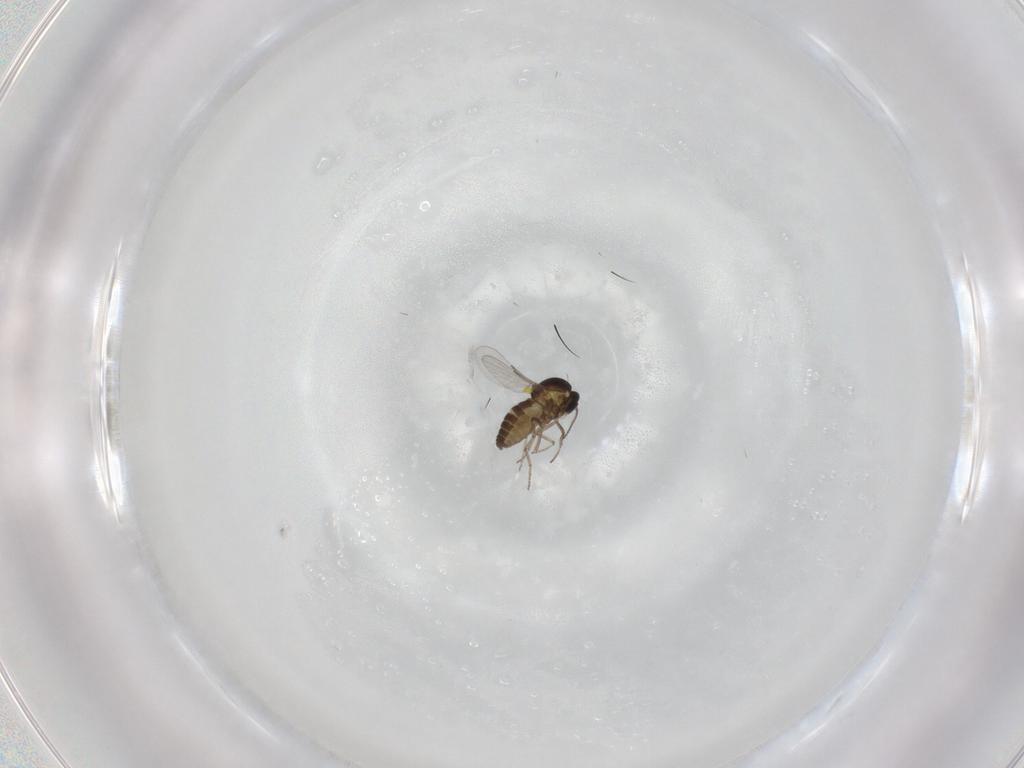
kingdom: Animalia
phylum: Arthropoda
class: Insecta
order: Diptera
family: Ceratopogonidae
